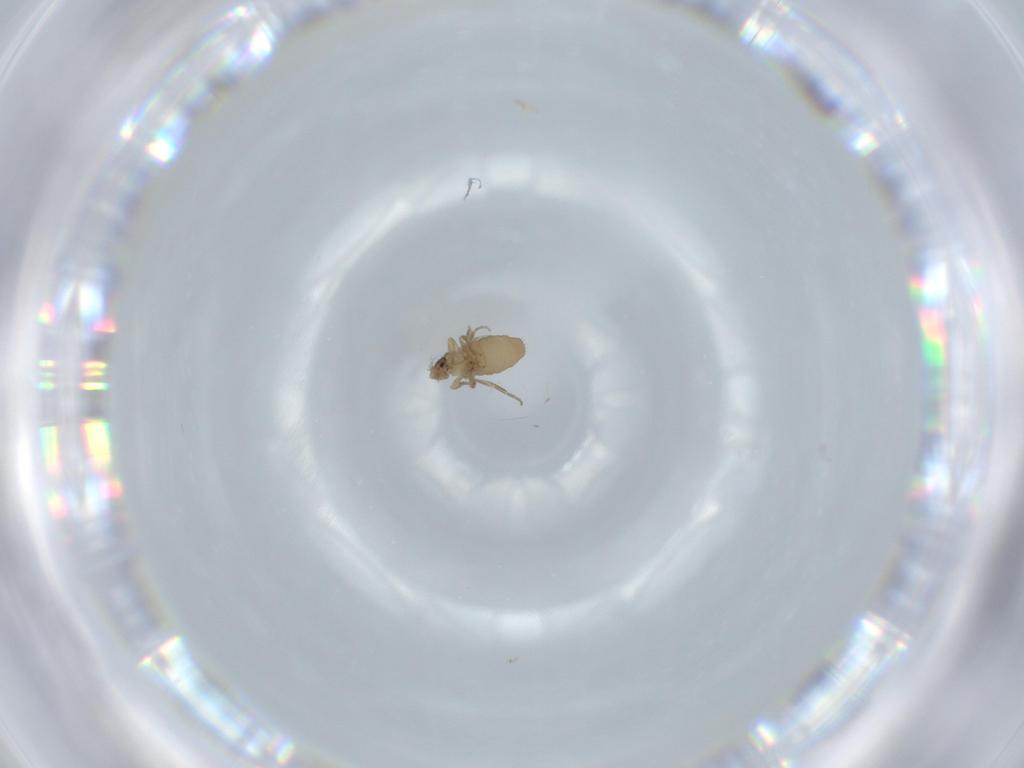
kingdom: Animalia
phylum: Arthropoda
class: Insecta
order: Diptera
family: Phoridae
